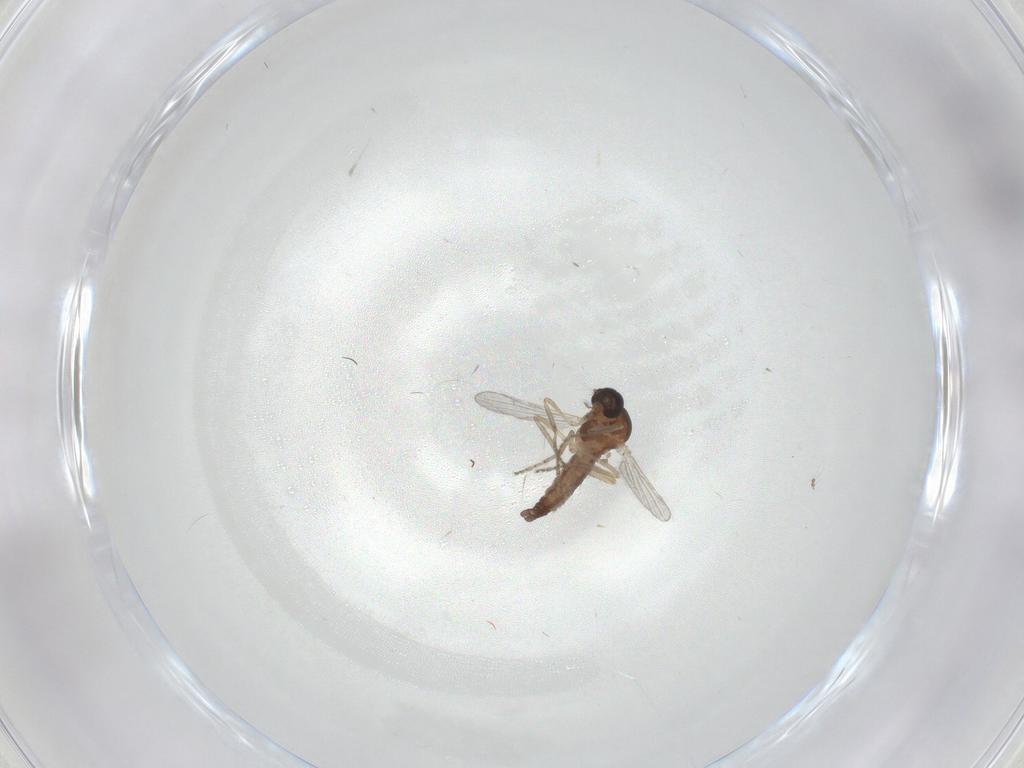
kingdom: Animalia
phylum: Arthropoda
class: Insecta
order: Diptera
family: Ceratopogonidae
